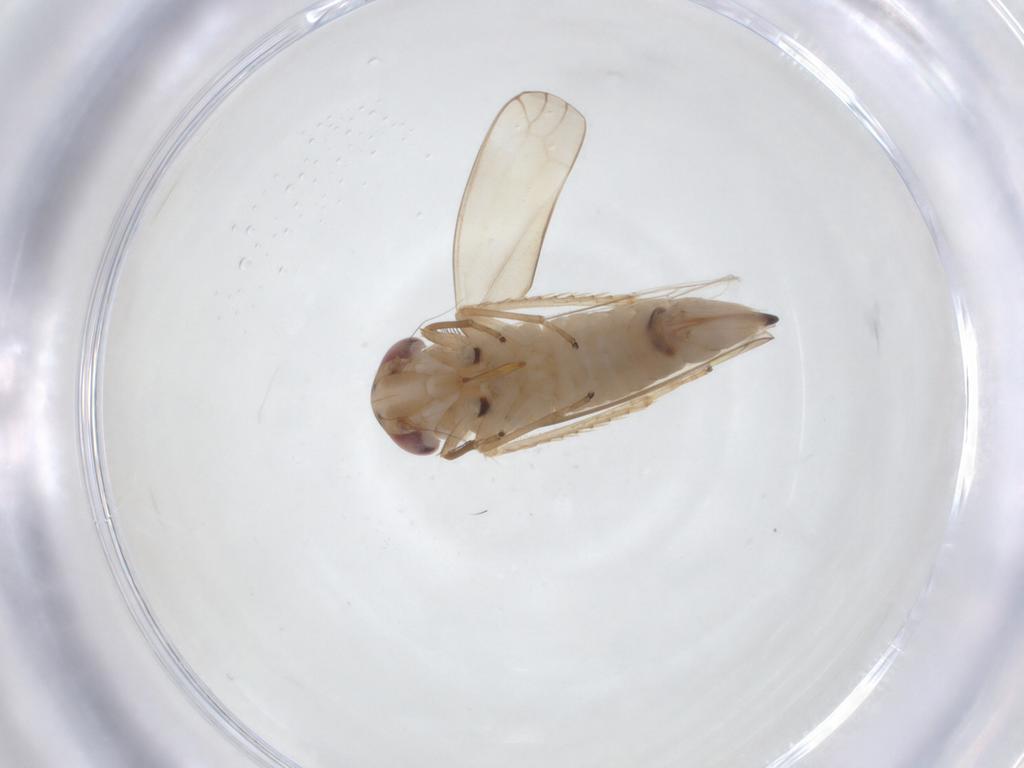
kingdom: Animalia
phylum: Arthropoda
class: Insecta
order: Hemiptera
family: Cicadellidae
